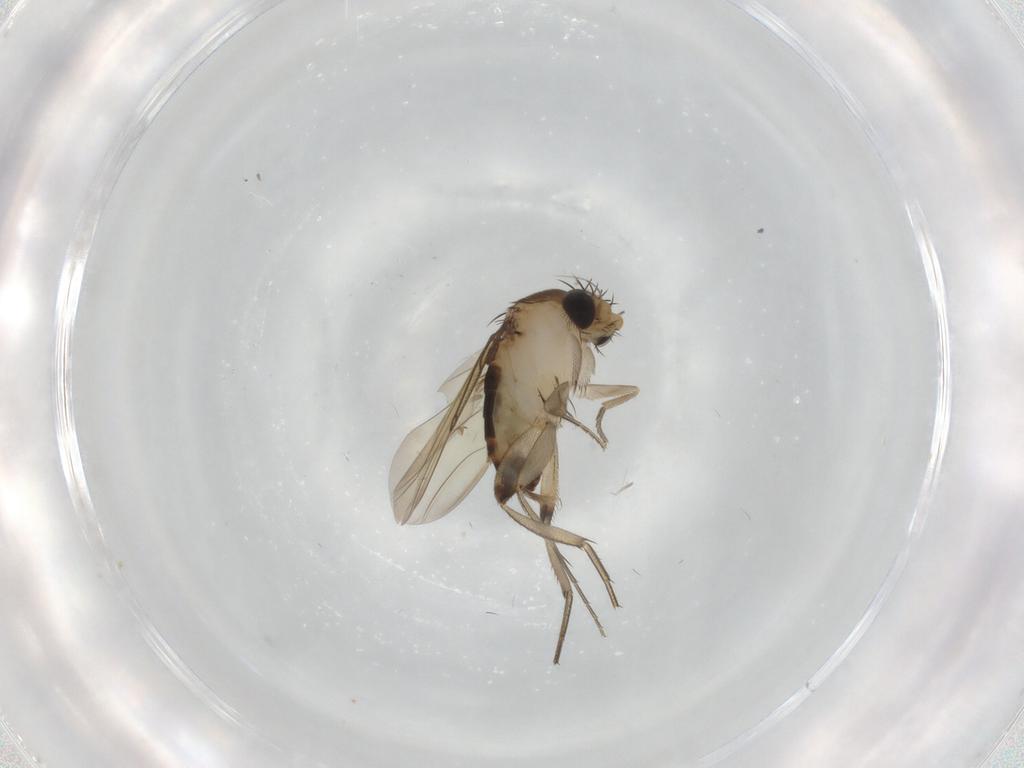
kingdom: Animalia
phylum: Arthropoda
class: Insecta
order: Diptera
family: Phoridae
